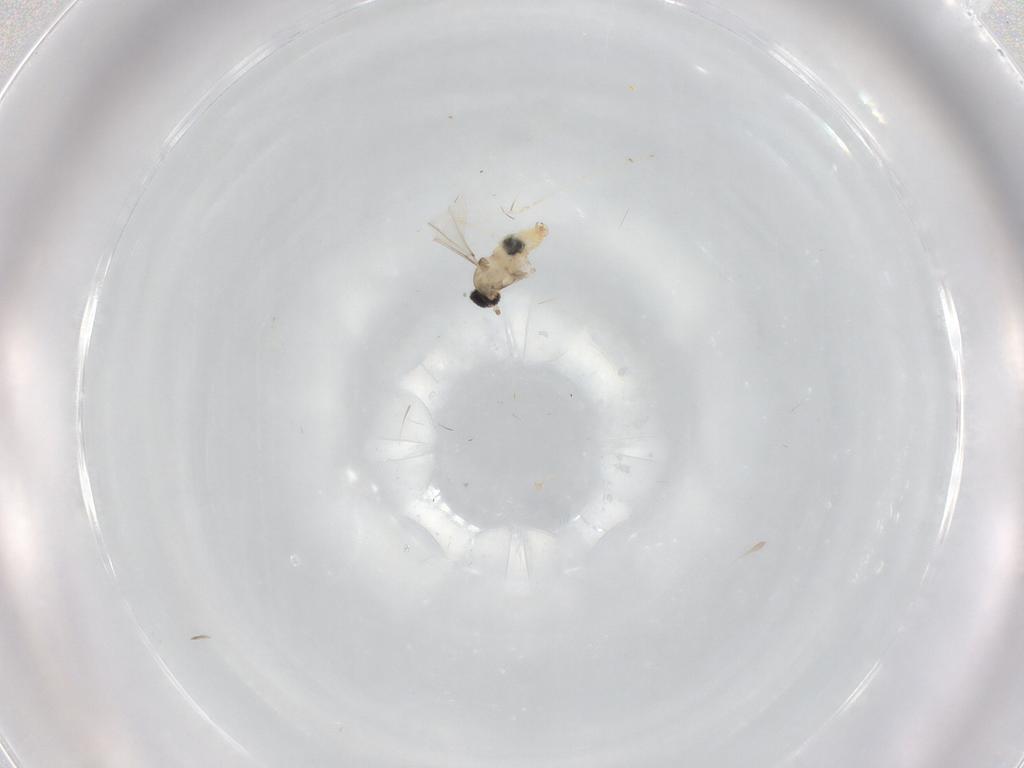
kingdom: Animalia
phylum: Arthropoda
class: Insecta
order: Diptera
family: Cecidomyiidae
